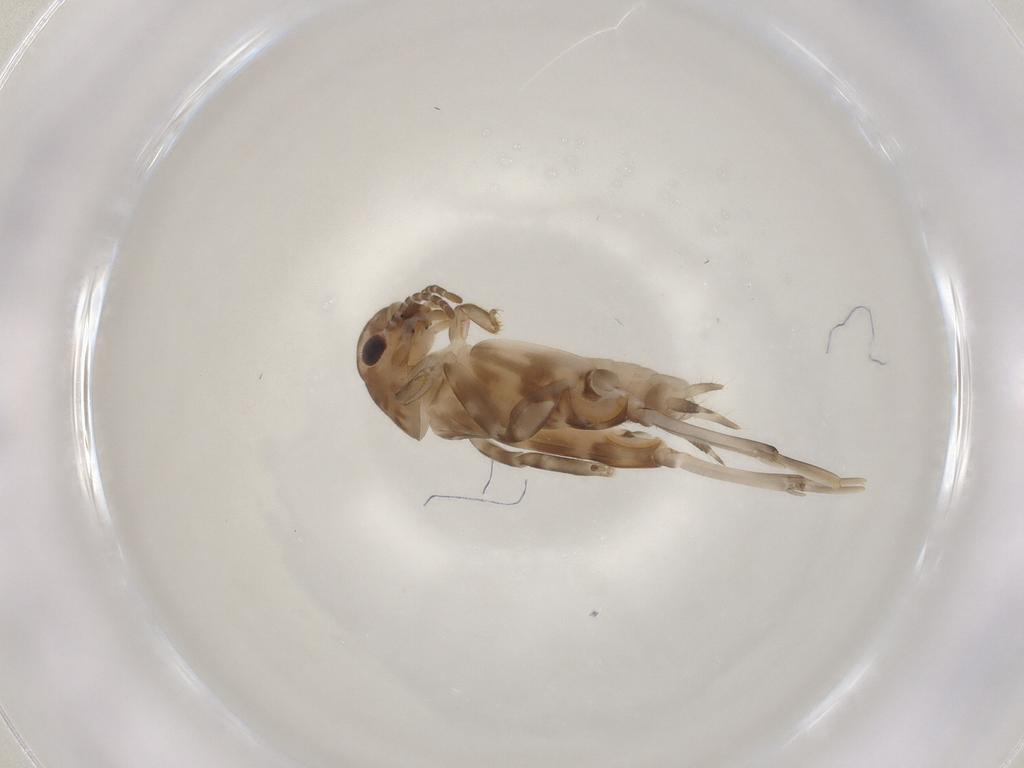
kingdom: Animalia
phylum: Arthropoda
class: Insecta
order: Orthoptera
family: Tridactylidae
